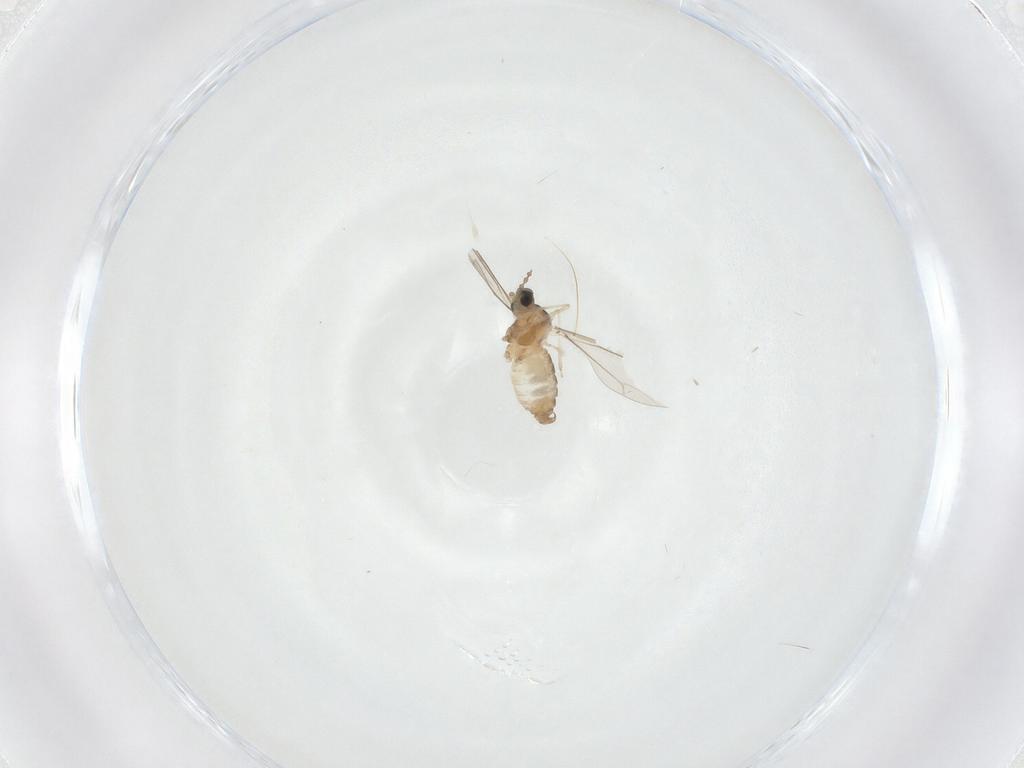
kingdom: Animalia
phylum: Arthropoda
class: Insecta
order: Diptera
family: Cecidomyiidae
